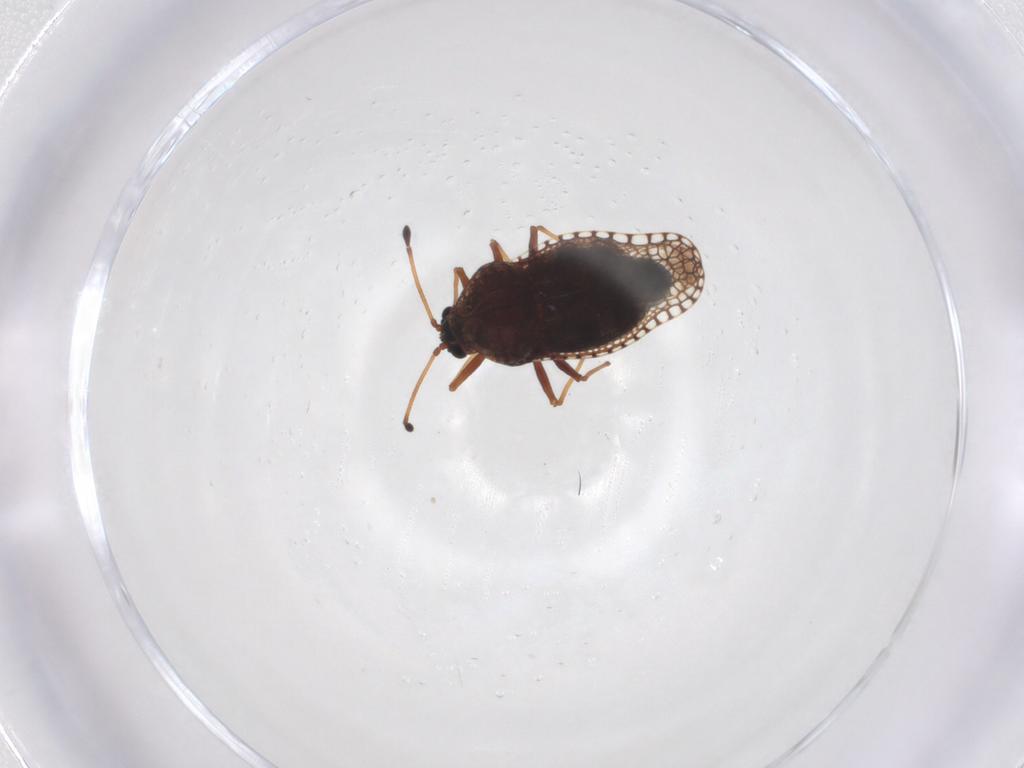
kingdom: Animalia
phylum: Arthropoda
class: Insecta
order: Hemiptera
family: Tingidae
